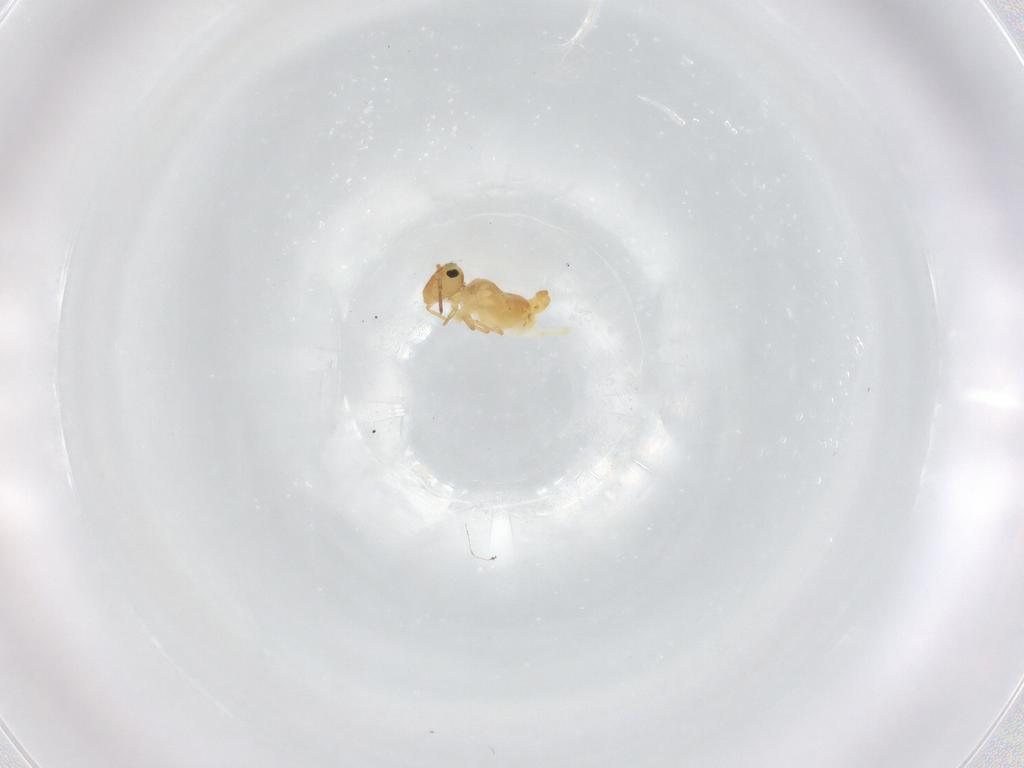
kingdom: Animalia
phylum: Arthropoda
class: Collembola
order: Symphypleona
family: Bourletiellidae
